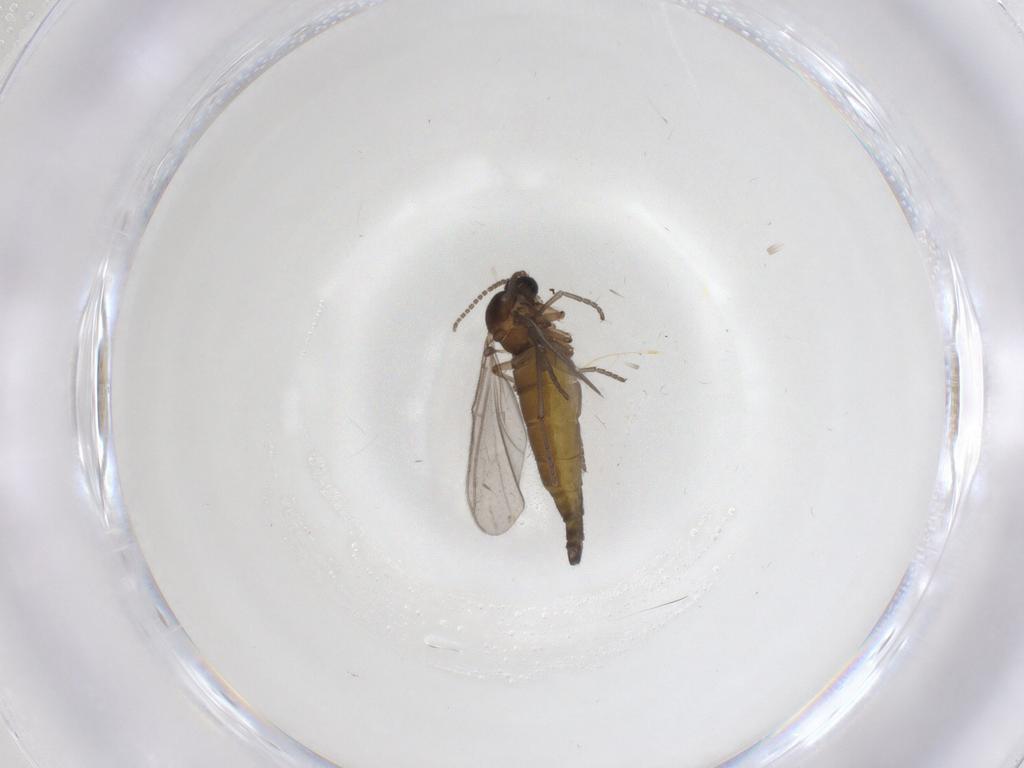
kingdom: Animalia
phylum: Arthropoda
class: Insecta
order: Diptera
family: Sciaridae
